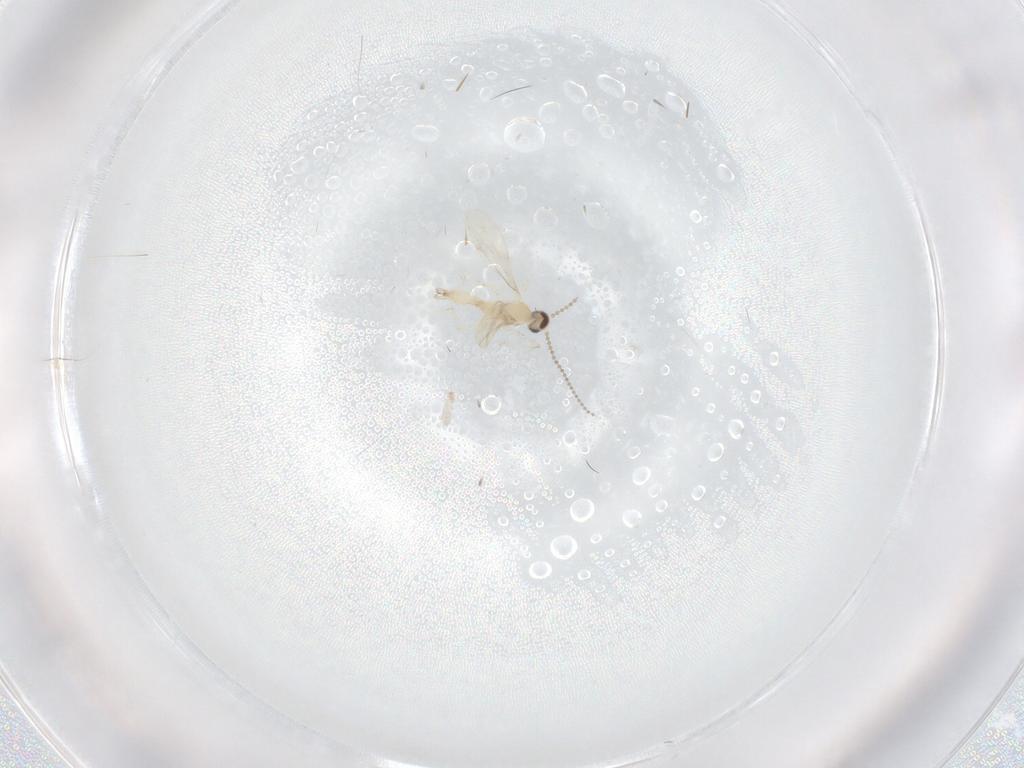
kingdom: Animalia
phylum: Arthropoda
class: Insecta
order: Diptera
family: Cecidomyiidae
